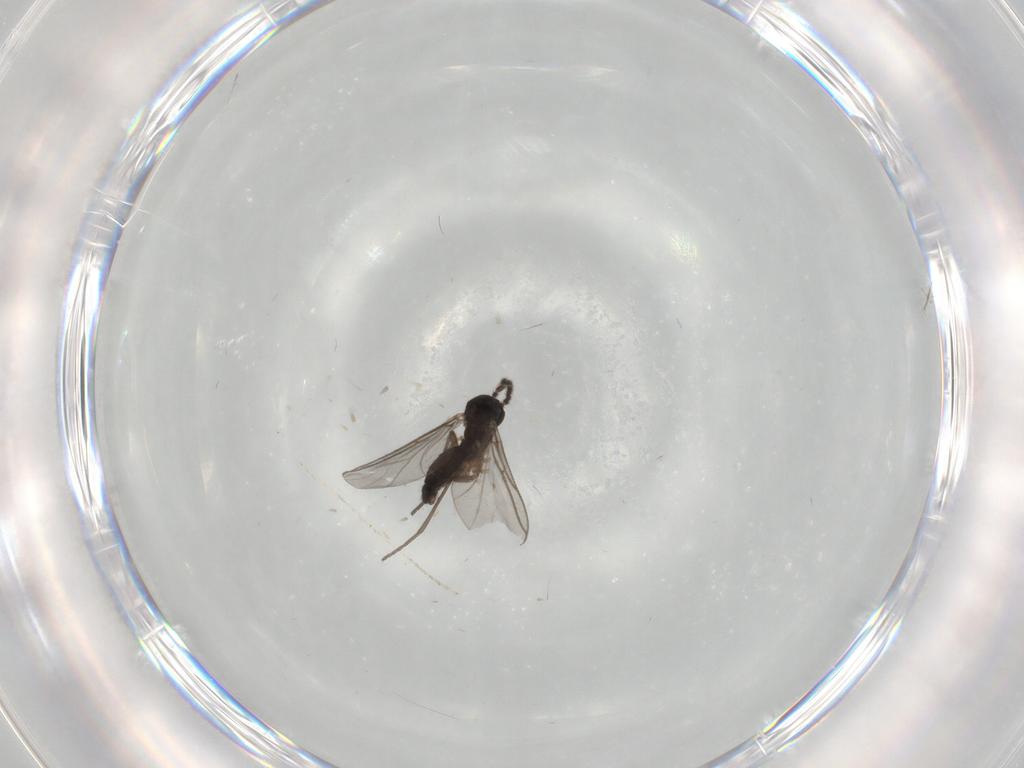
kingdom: Animalia
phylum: Arthropoda
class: Insecta
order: Diptera
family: Cecidomyiidae
